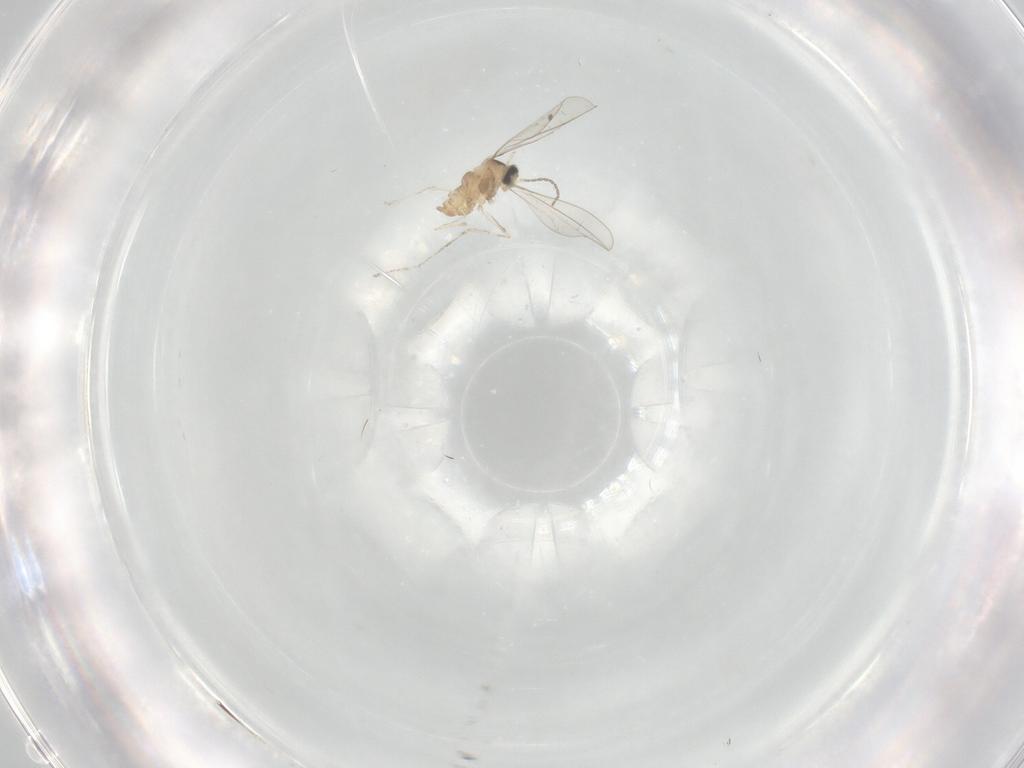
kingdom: Animalia
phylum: Arthropoda
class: Insecta
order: Diptera
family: Cecidomyiidae
